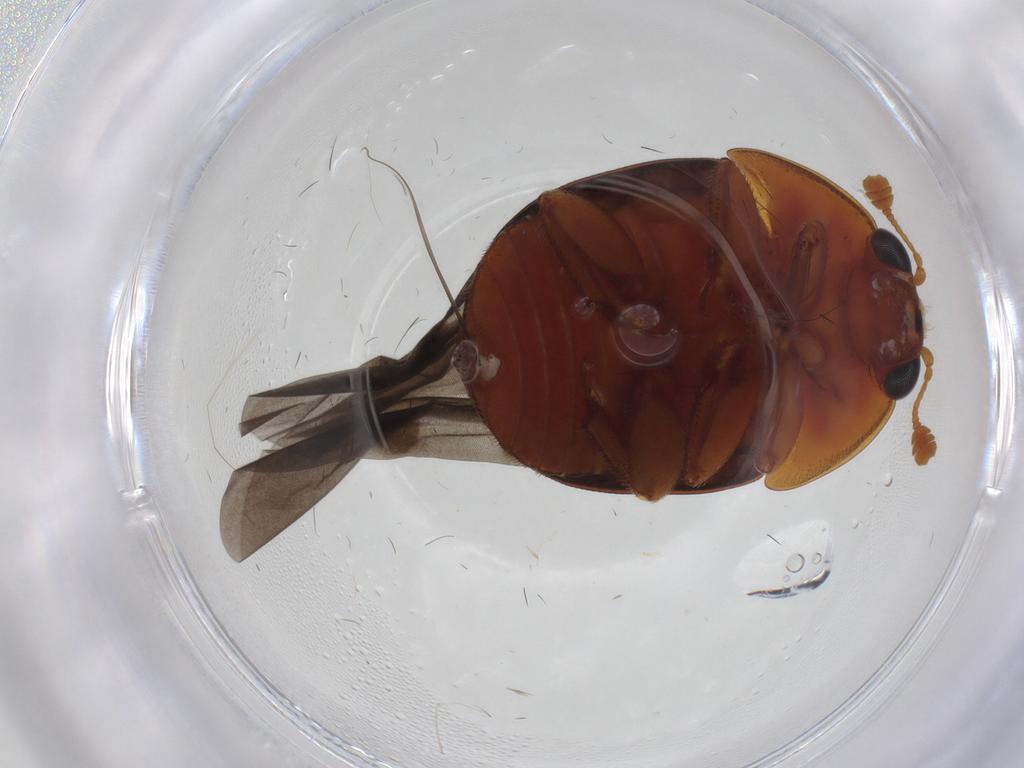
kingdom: Animalia
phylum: Arthropoda
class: Insecta
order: Coleoptera
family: Nitidulidae
